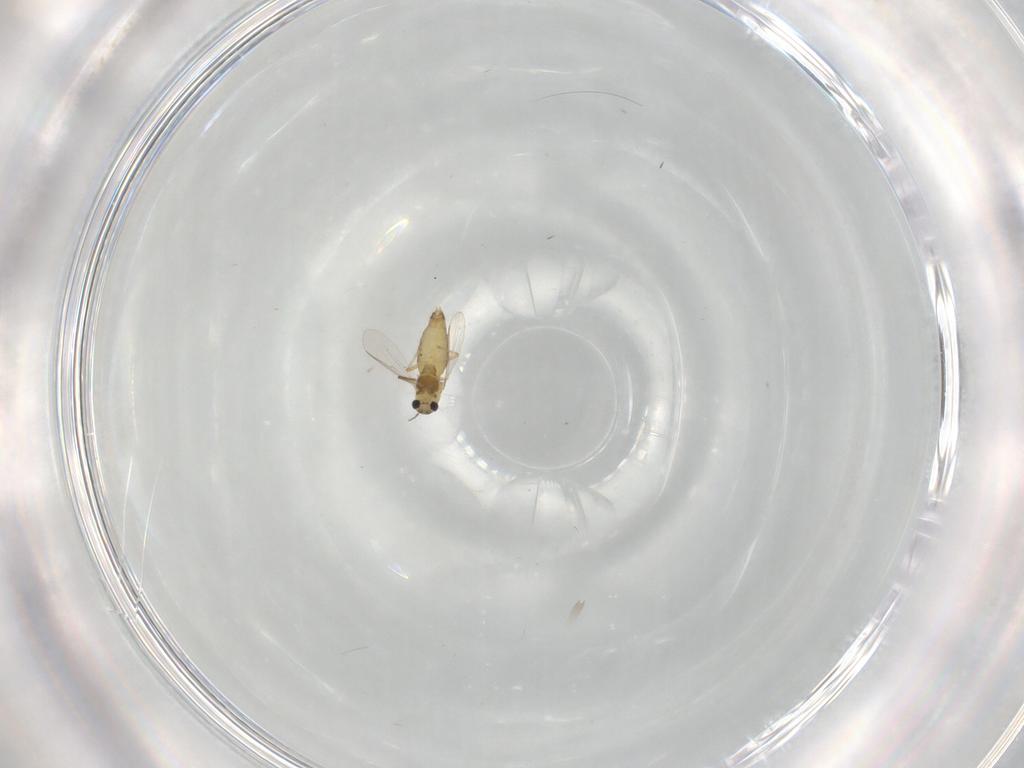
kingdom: Animalia
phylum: Arthropoda
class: Insecta
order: Diptera
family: Chironomidae
